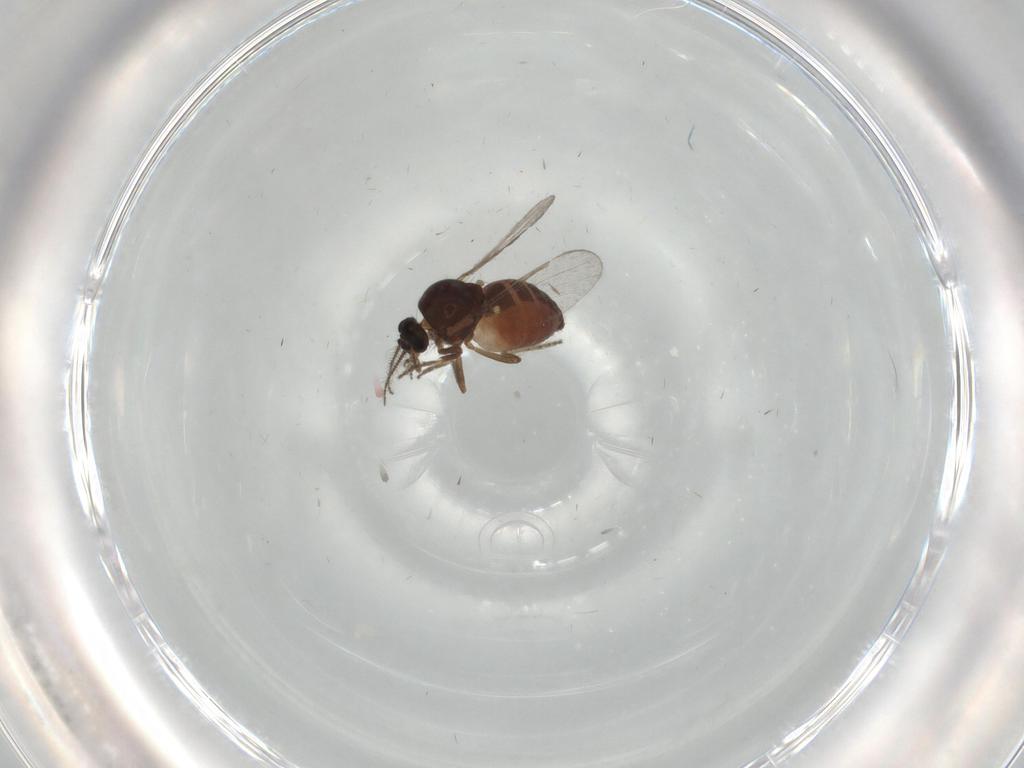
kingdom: Animalia
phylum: Arthropoda
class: Insecta
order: Diptera
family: Ceratopogonidae
